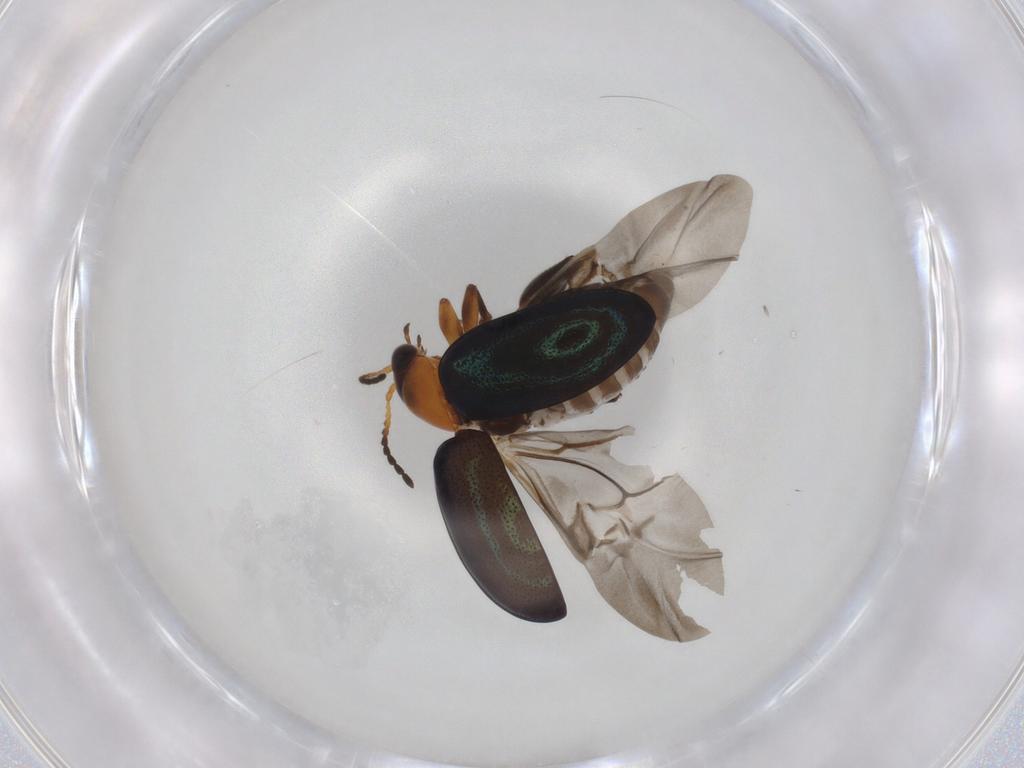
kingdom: Animalia
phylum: Arthropoda
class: Insecta
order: Coleoptera
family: Chrysomelidae
